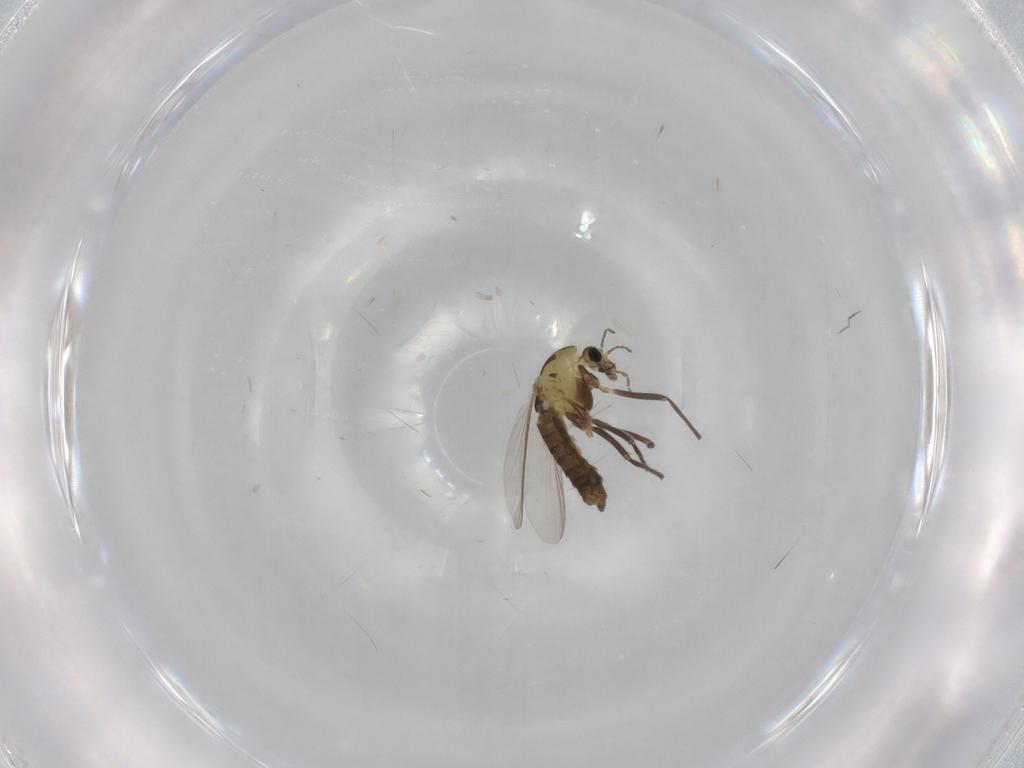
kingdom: Animalia
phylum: Arthropoda
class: Insecta
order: Diptera
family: Chironomidae
